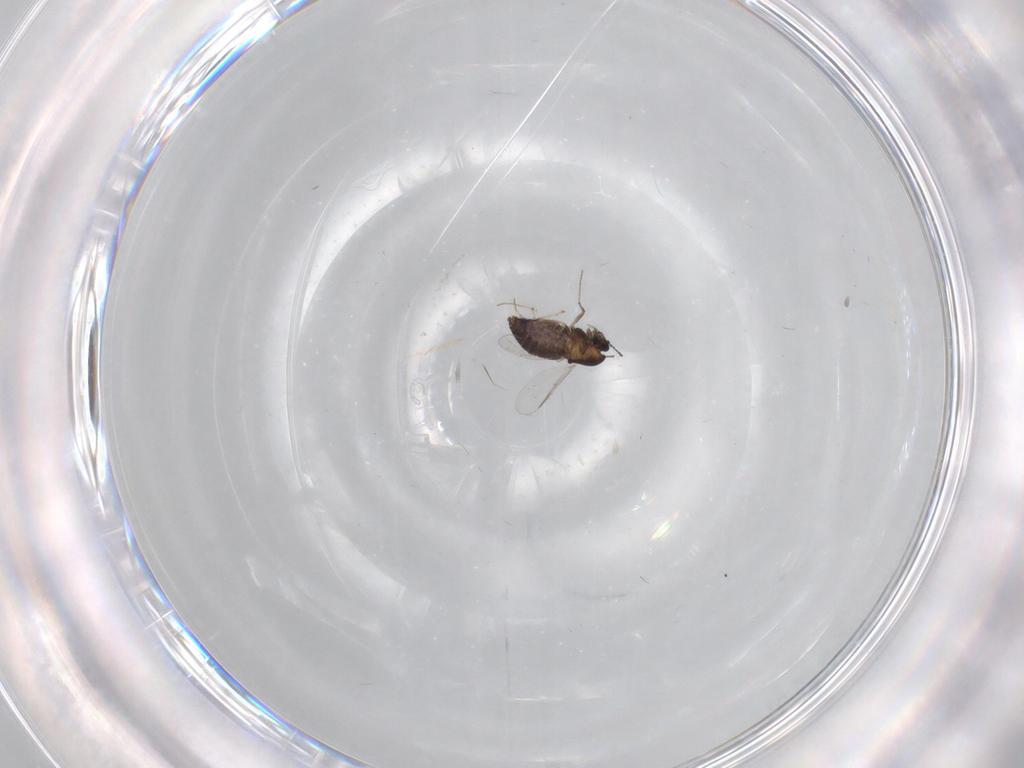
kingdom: Animalia
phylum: Arthropoda
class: Insecta
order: Diptera
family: Chironomidae
